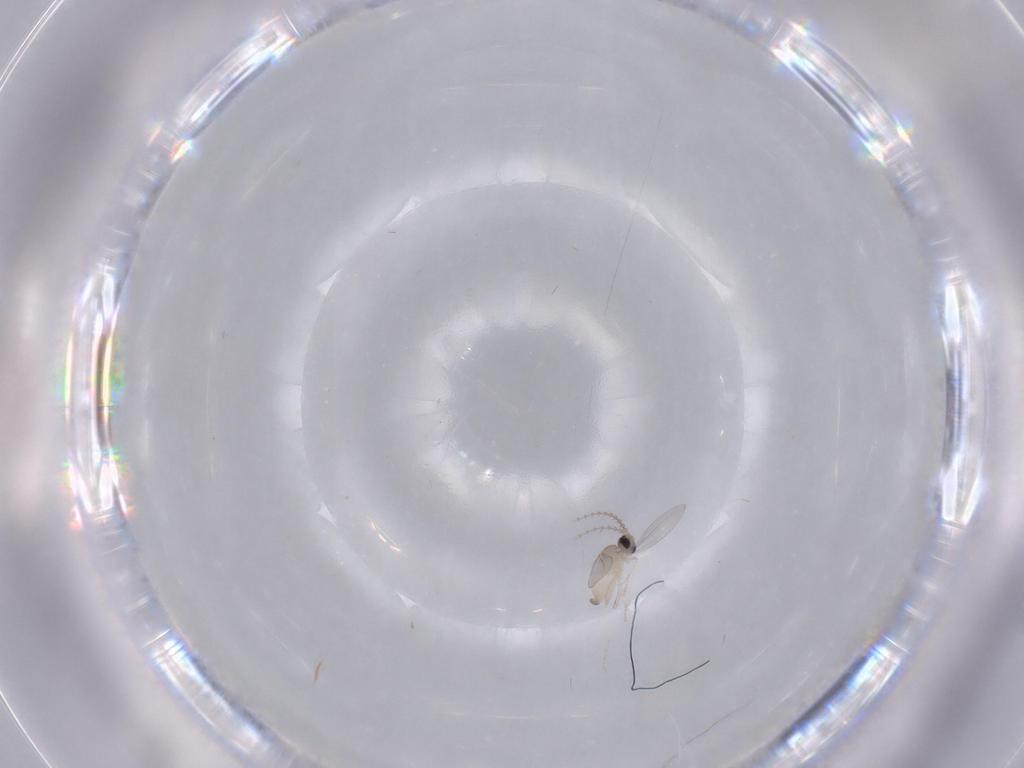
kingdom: Animalia
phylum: Arthropoda
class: Insecta
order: Diptera
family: Cecidomyiidae
